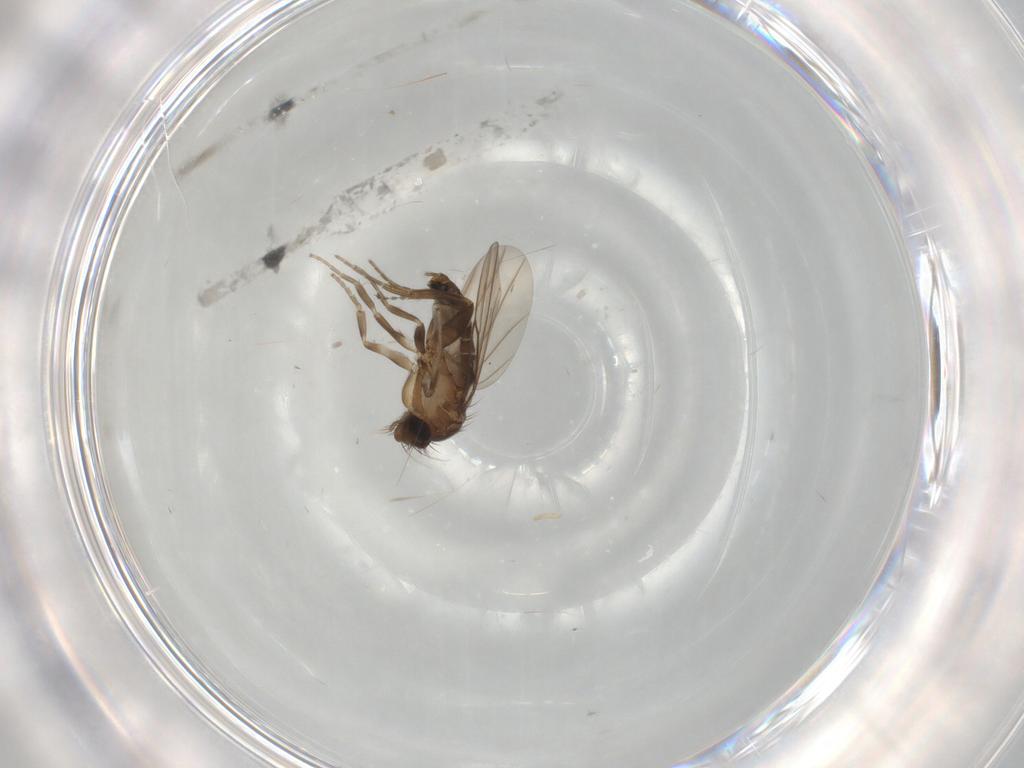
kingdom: Animalia
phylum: Arthropoda
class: Insecta
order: Diptera
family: Phoridae
